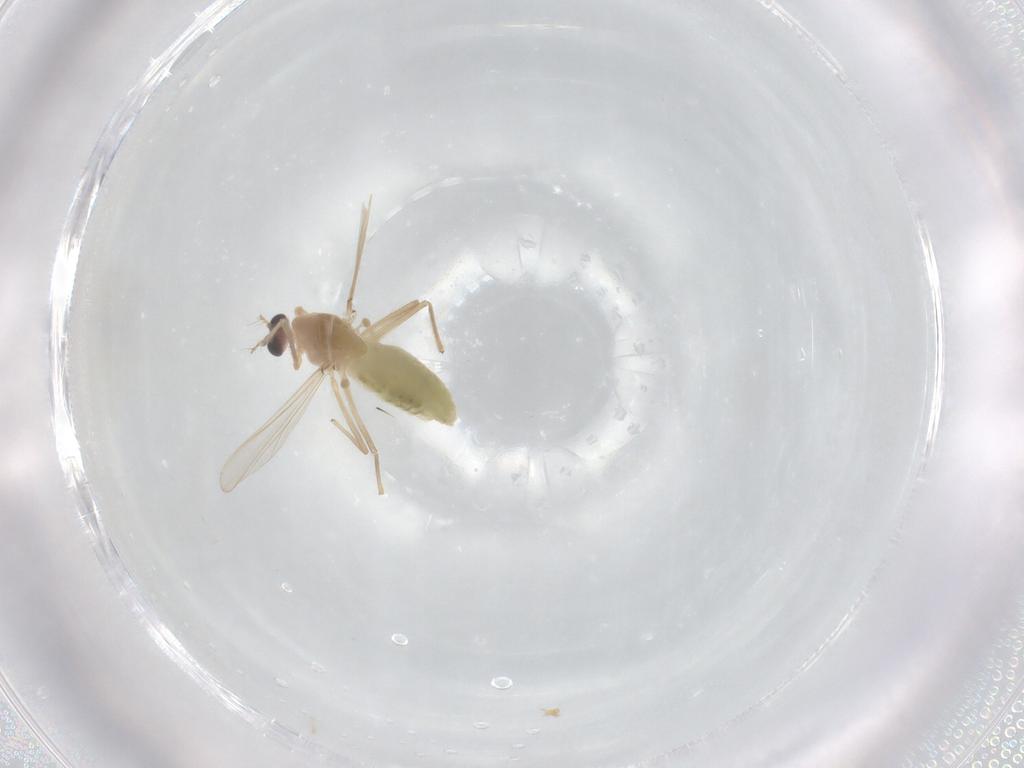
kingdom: Animalia
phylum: Arthropoda
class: Insecta
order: Diptera
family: Chironomidae
